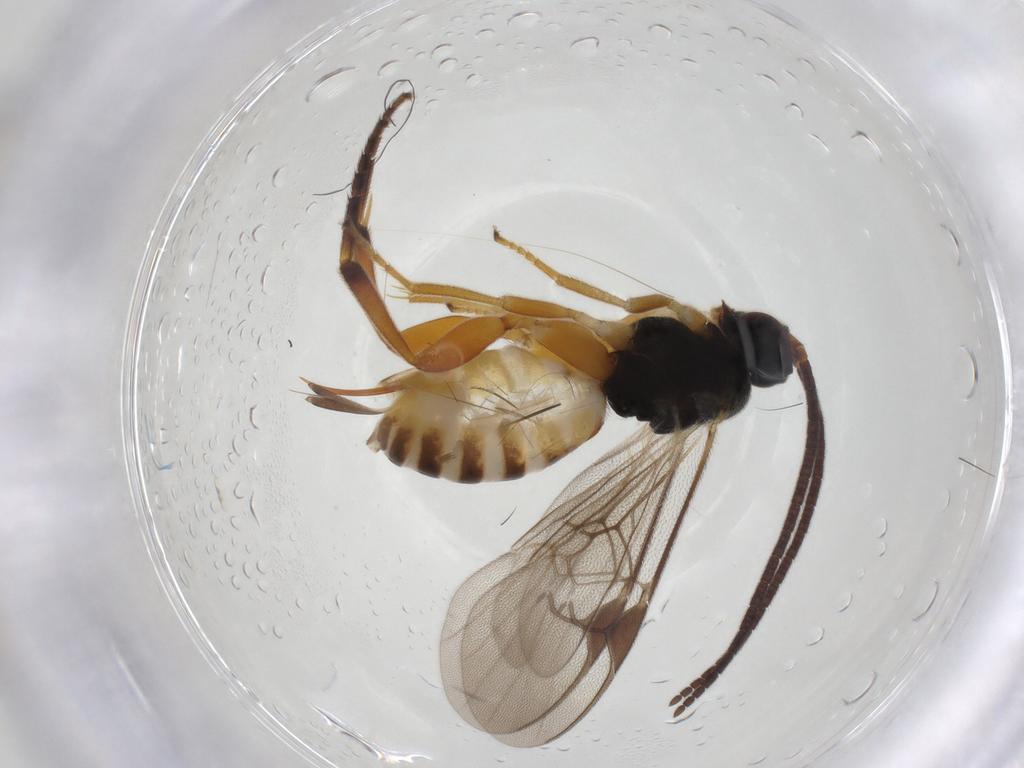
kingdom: Animalia
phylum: Arthropoda
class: Insecta
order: Hymenoptera
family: Braconidae
